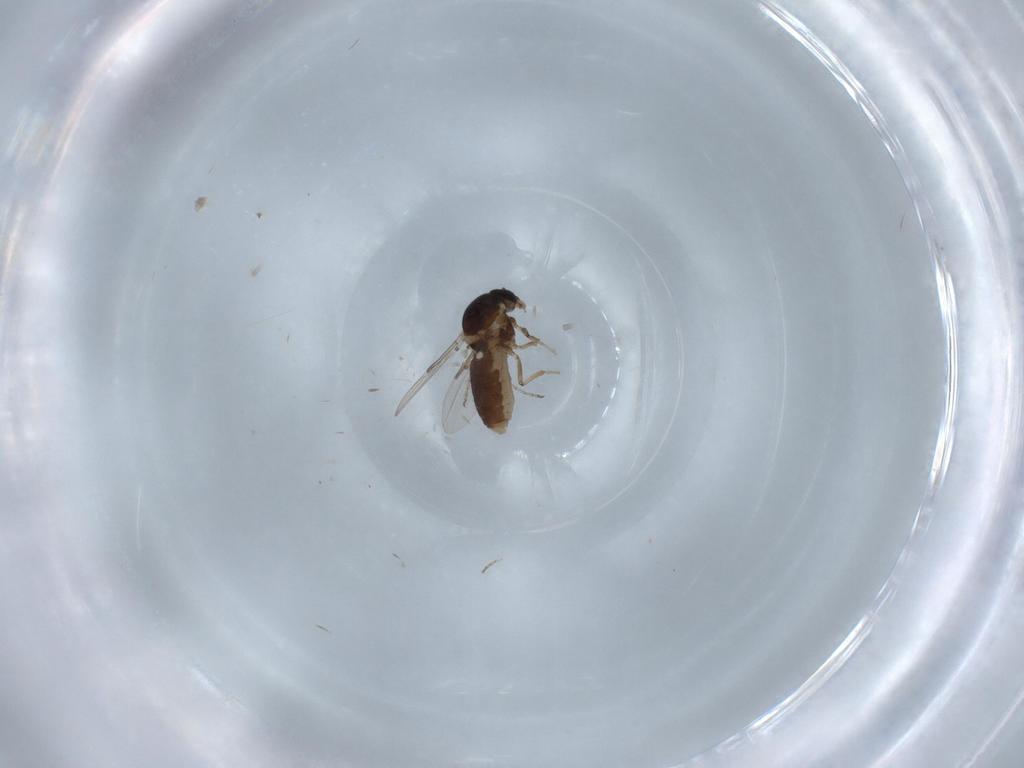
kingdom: Animalia
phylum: Arthropoda
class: Insecta
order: Diptera
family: Ceratopogonidae
